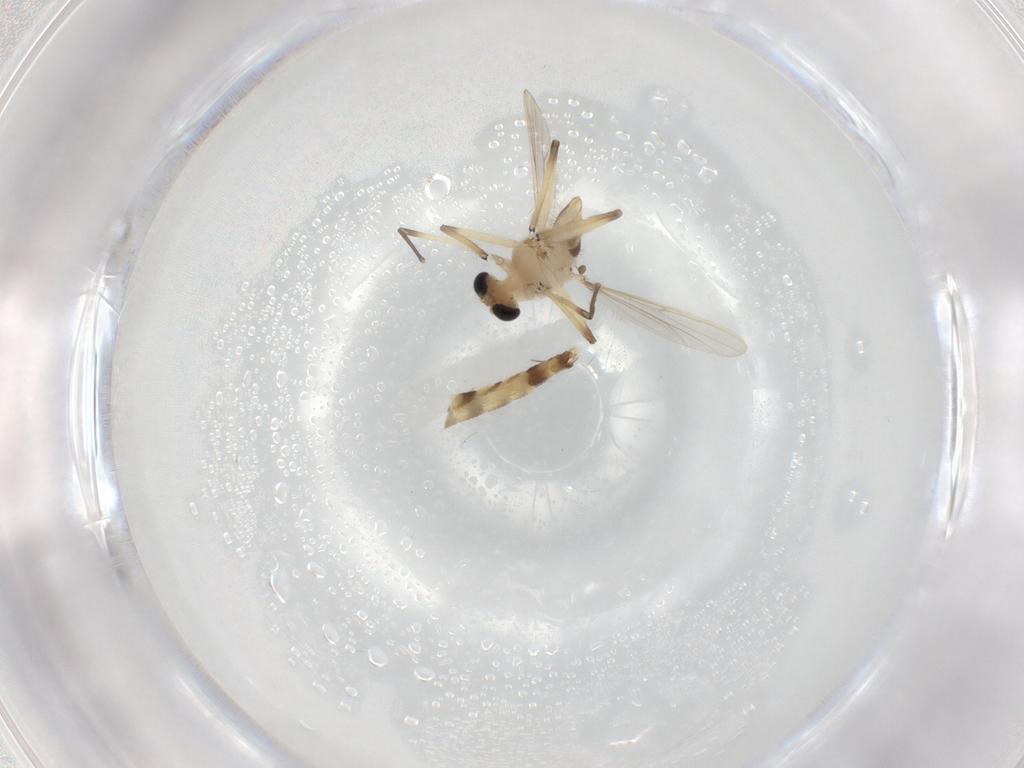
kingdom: Animalia
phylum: Arthropoda
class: Insecta
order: Diptera
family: Chironomidae
